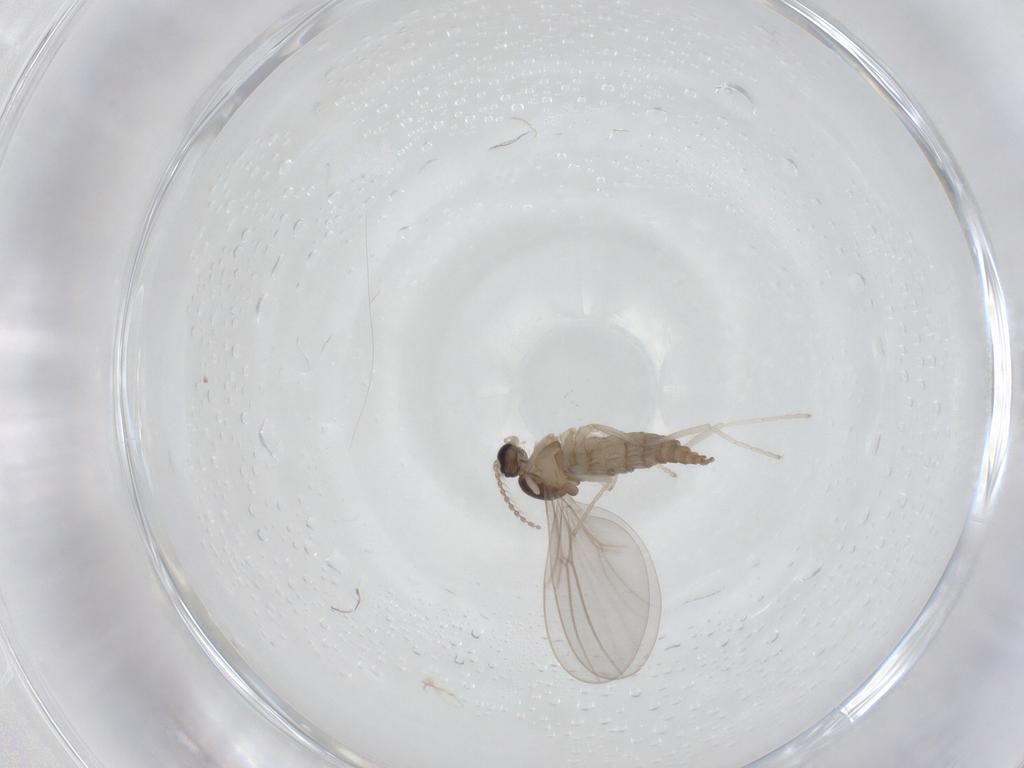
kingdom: Animalia
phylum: Arthropoda
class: Insecta
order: Diptera
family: Cecidomyiidae
